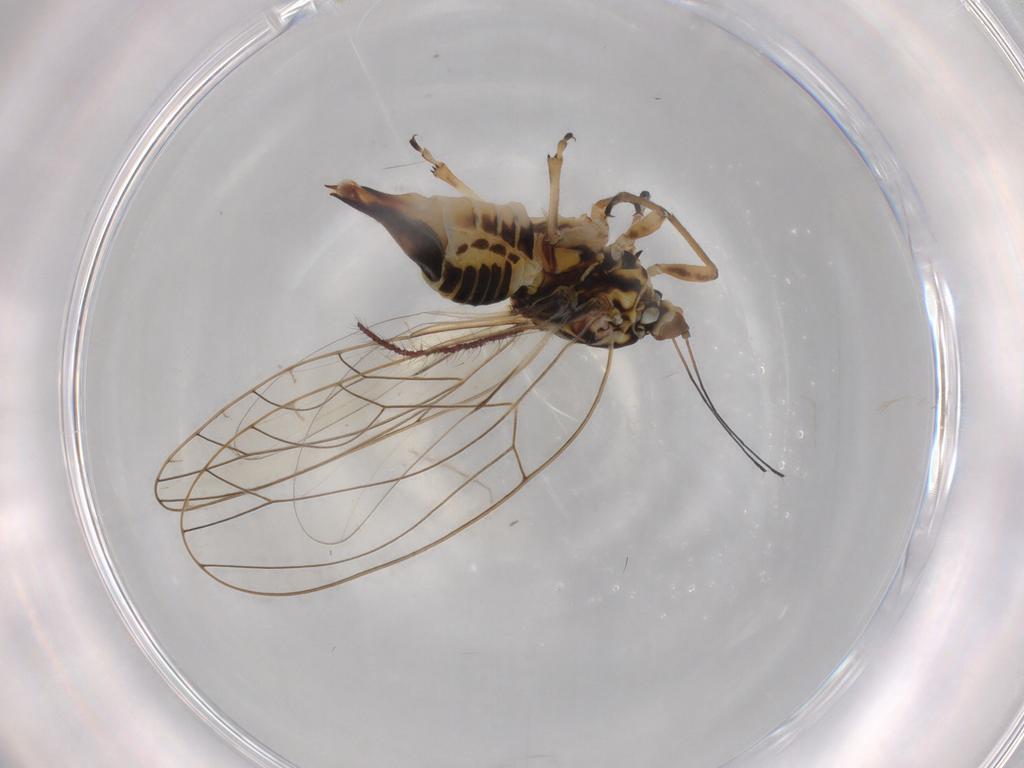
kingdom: Animalia
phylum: Arthropoda
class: Insecta
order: Hemiptera
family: Triozidae
